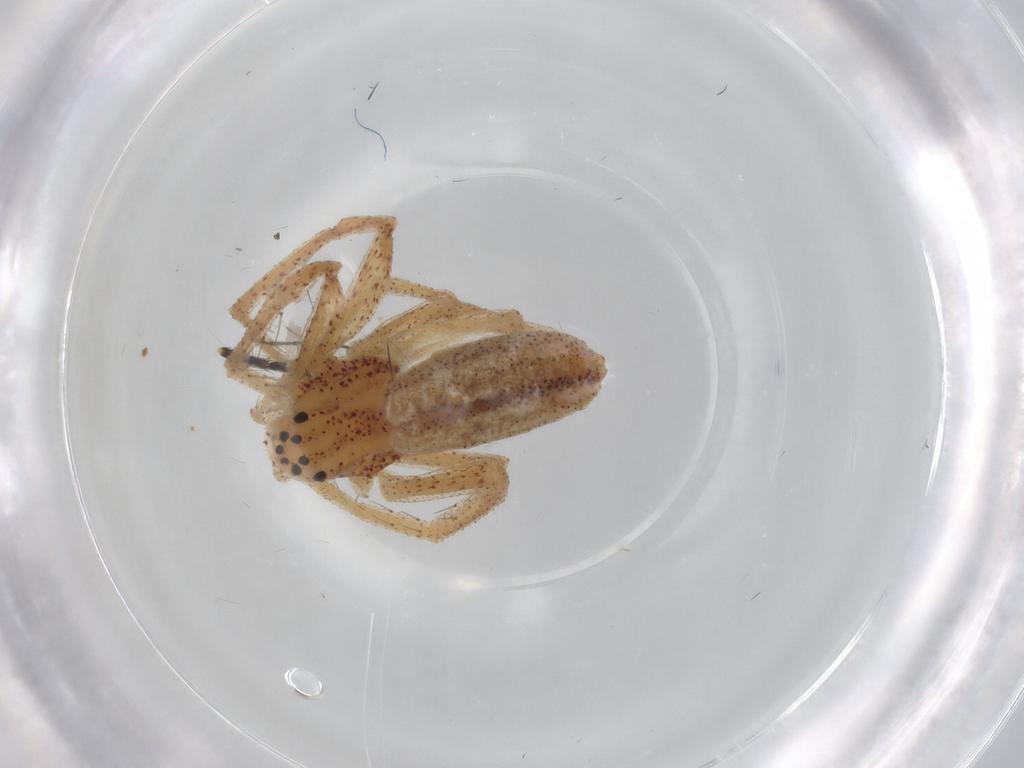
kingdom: Animalia
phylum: Arthropoda
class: Arachnida
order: Araneae
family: Philodromidae
